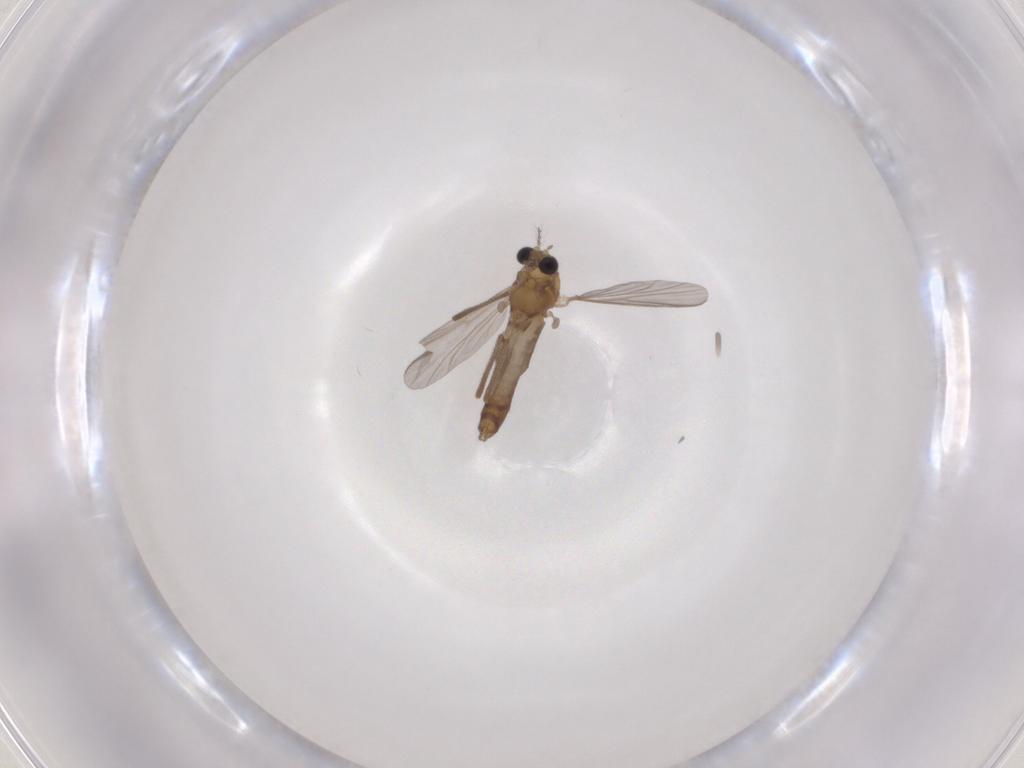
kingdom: Animalia
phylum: Arthropoda
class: Insecta
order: Diptera
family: Chironomidae
